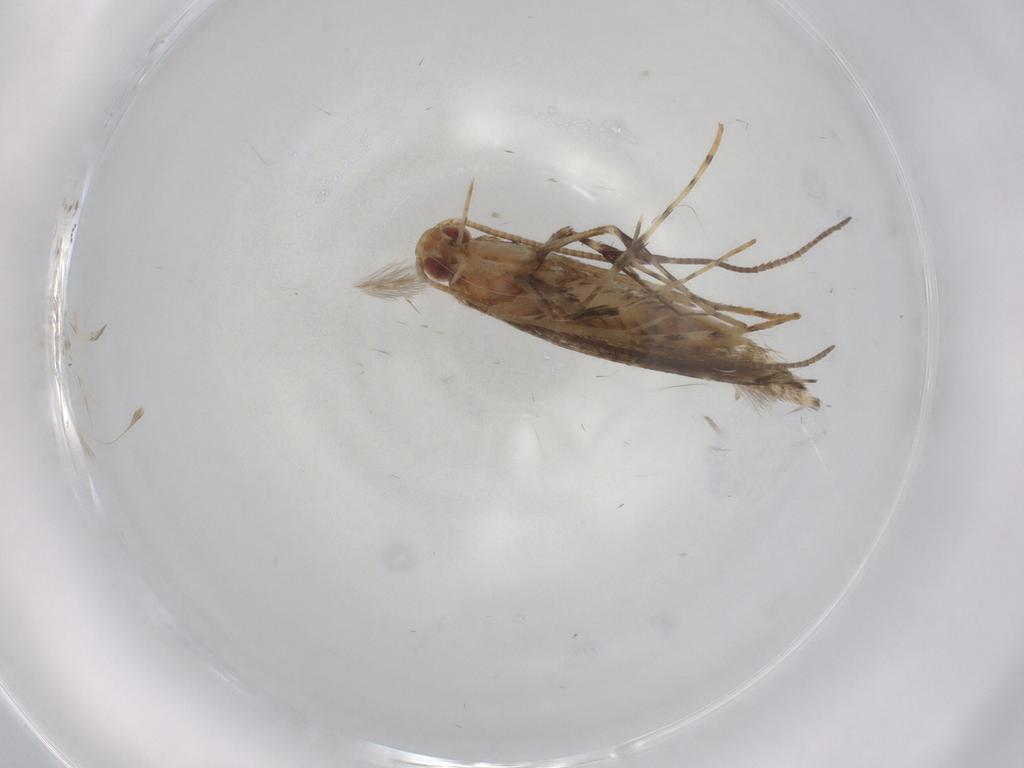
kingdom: Animalia
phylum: Arthropoda
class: Insecta
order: Lepidoptera
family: Gracillariidae
